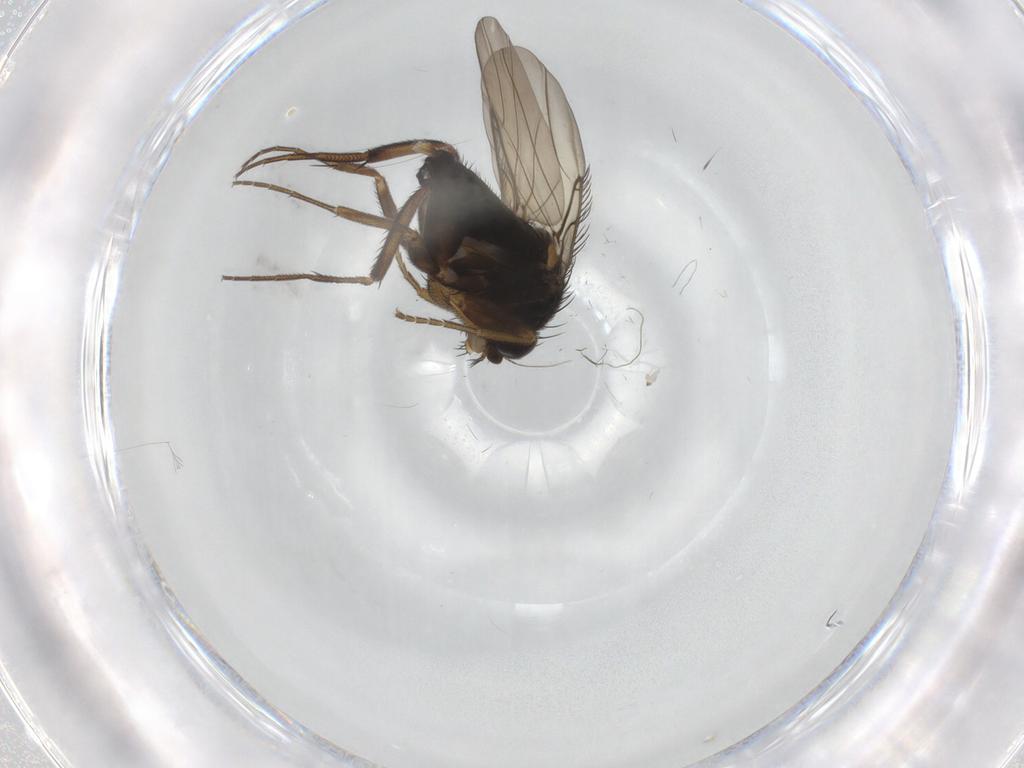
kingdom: Animalia
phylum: Arthropoda
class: Insecta
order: Diptera
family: Phoridae
